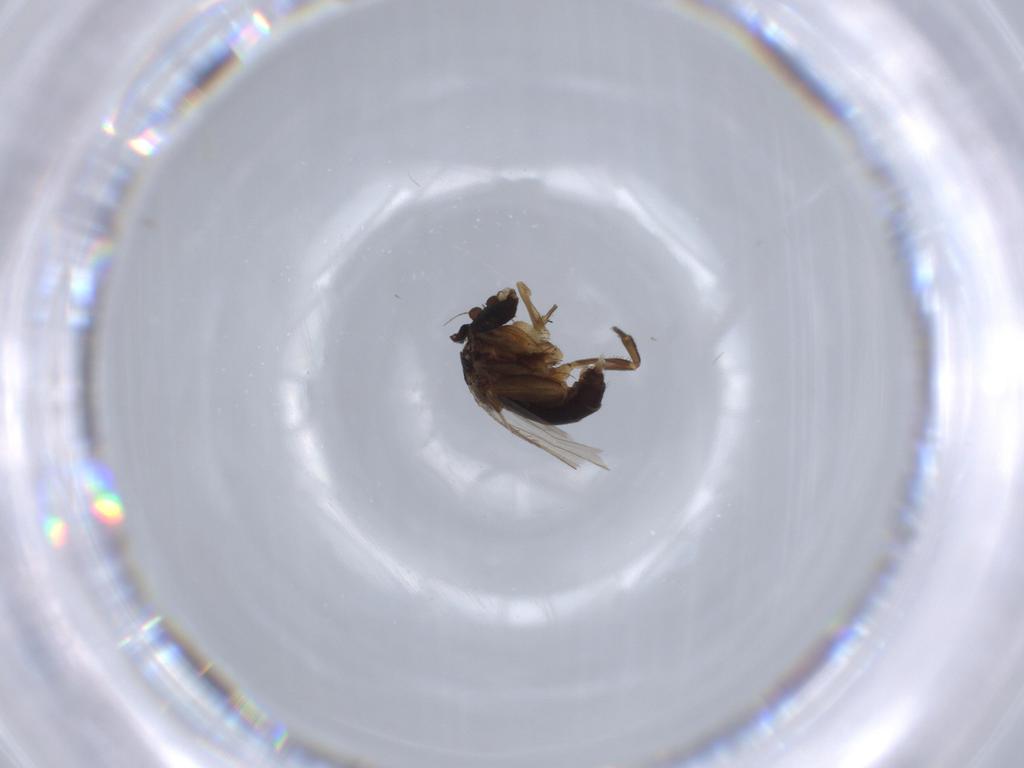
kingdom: Animalia
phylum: Arthropoda
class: Insecta
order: Diptera
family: Phoridae
